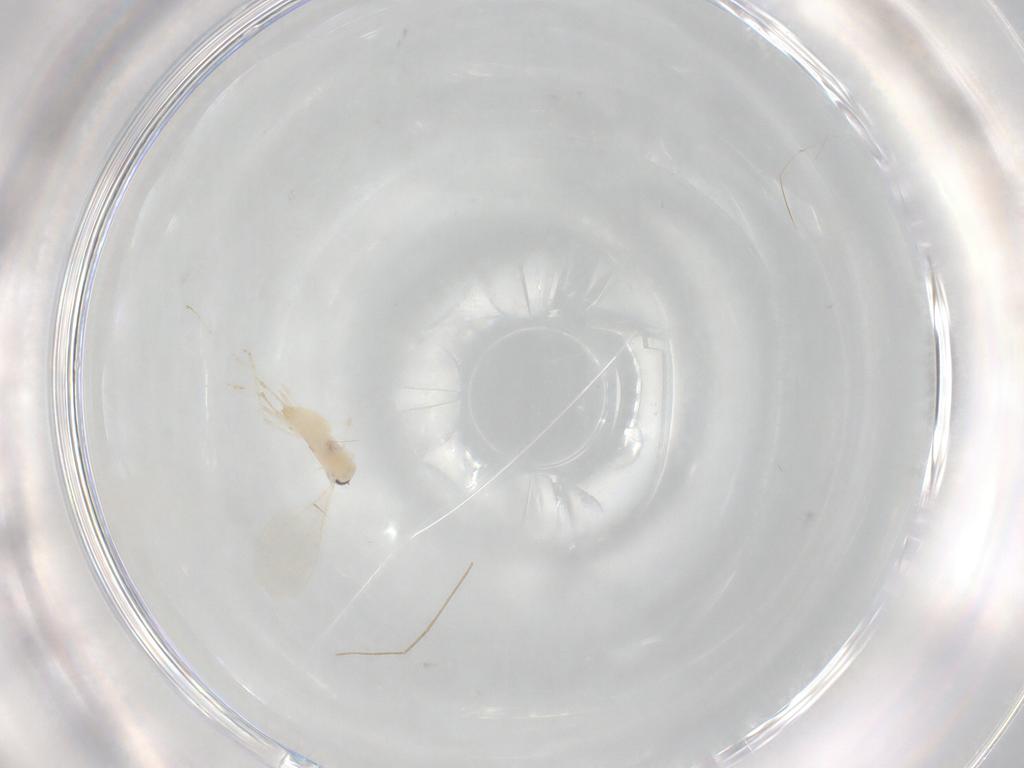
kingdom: Animalia
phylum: Arthropoda
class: Insecta
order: Diptera
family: Cecidomyiidae
